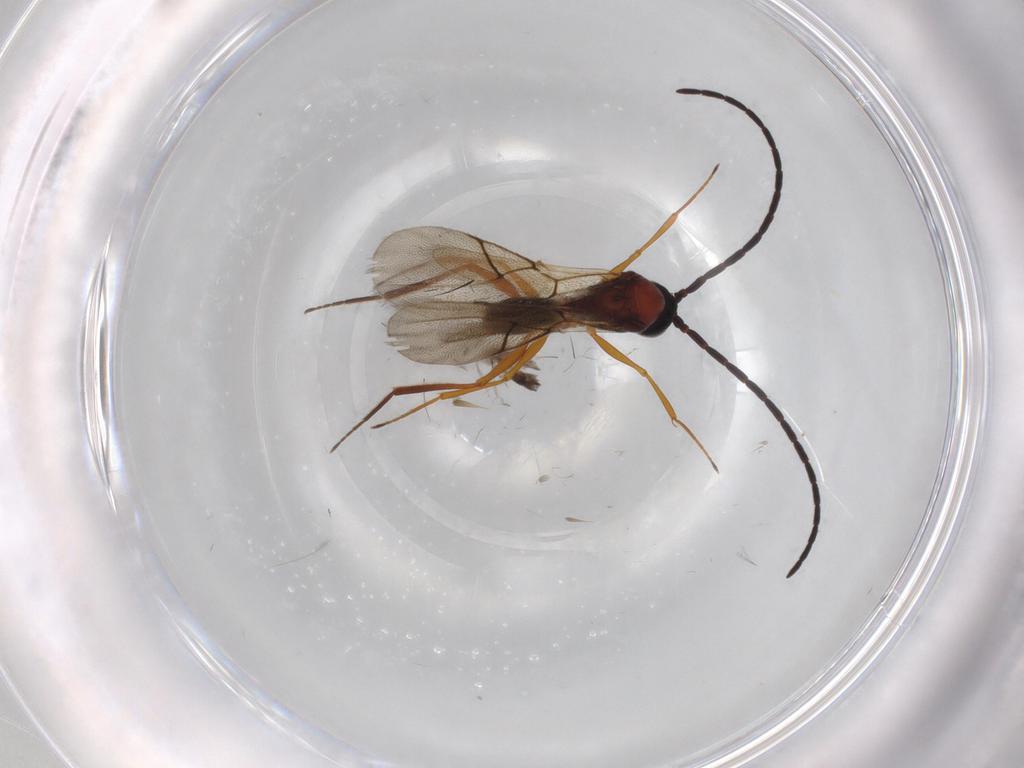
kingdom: Animalia
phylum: Arthropoda
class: Insecta
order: Hymenoptera
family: Figitidae
